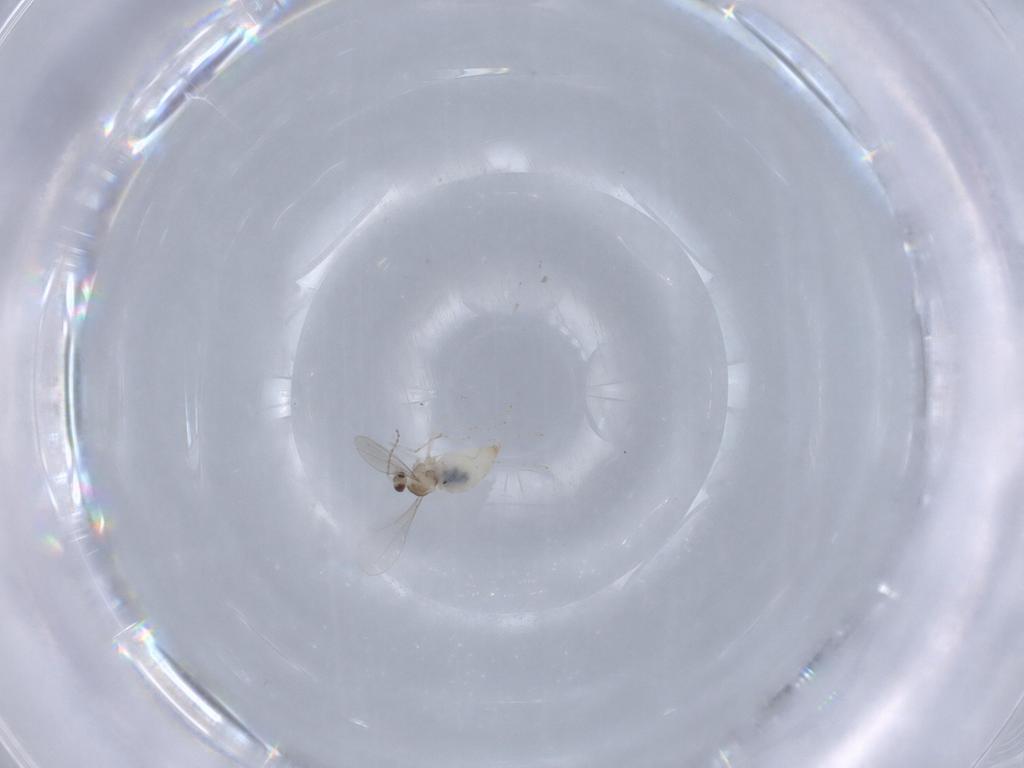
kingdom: Animalia
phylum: Arthropoda
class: Insecta
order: Diptera
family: Cecidomyiidae
